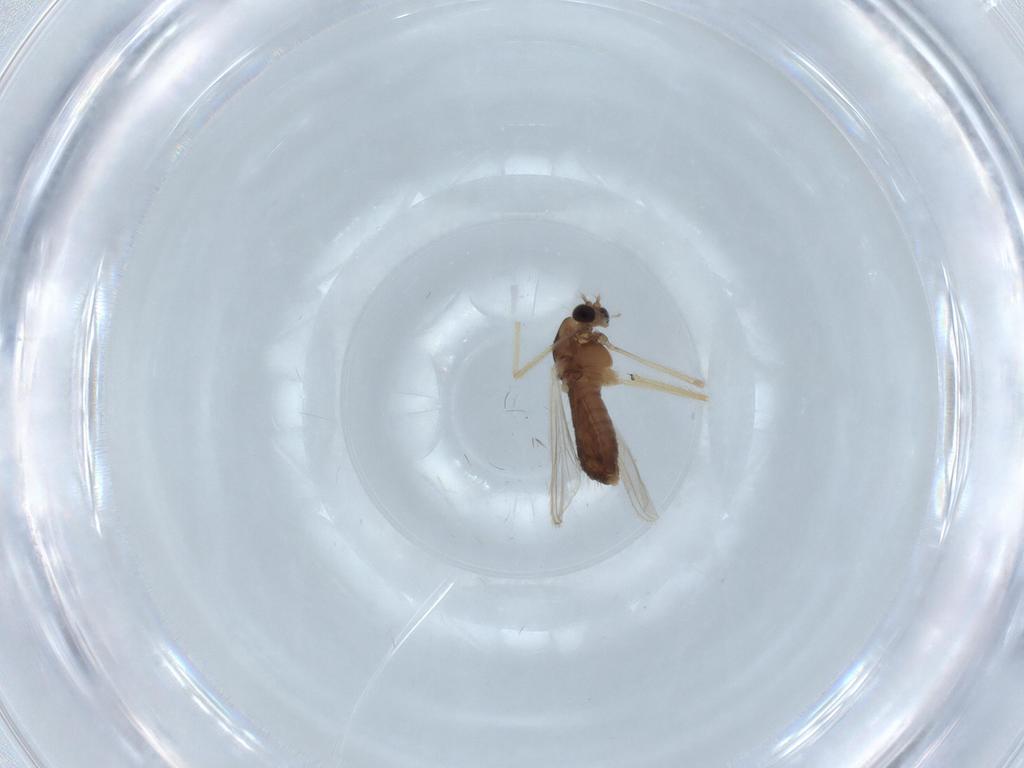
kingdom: Animalia
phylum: Arthropoda
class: Insecta
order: Diptera
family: Chironomidae
